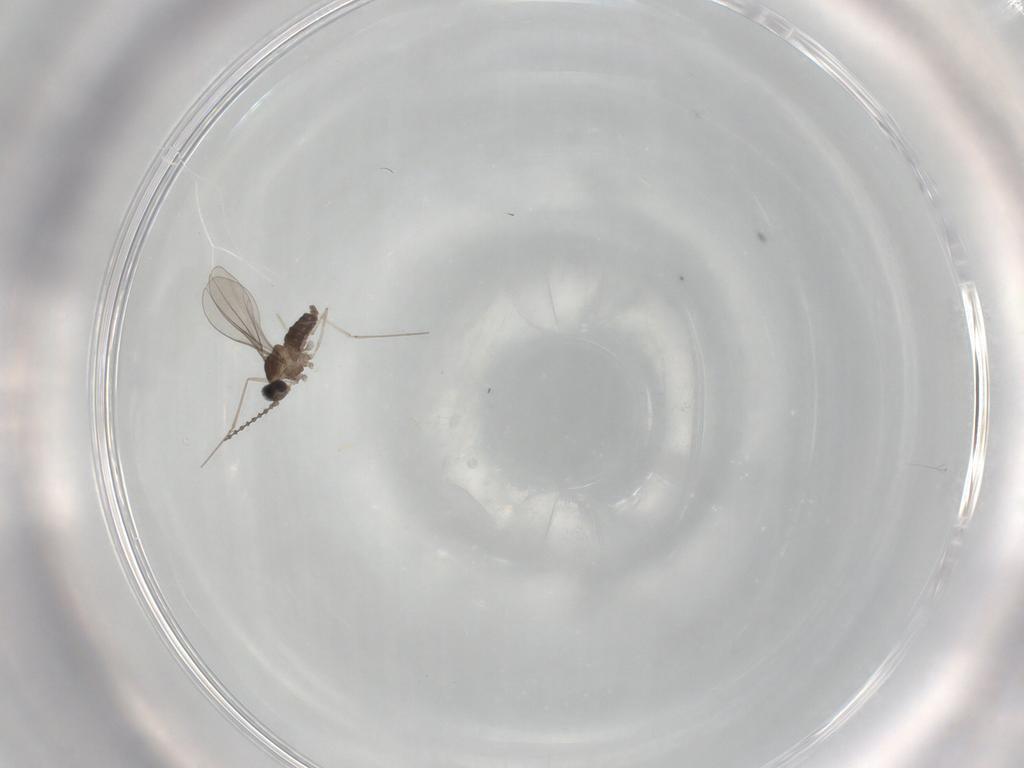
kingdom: Animalia
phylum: Arthropoda
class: Insecta
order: Diptera
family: Cecidomyiidae
